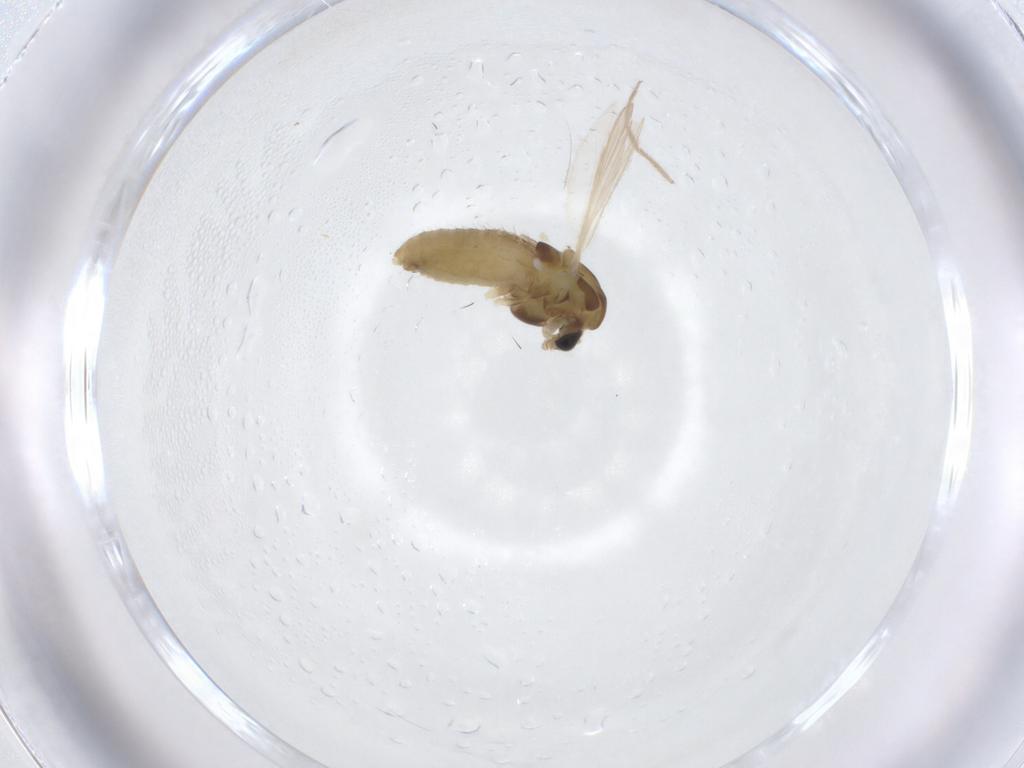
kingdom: Animalia
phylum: Arthropoda
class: Insecta
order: Diptera
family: Chironomidae
